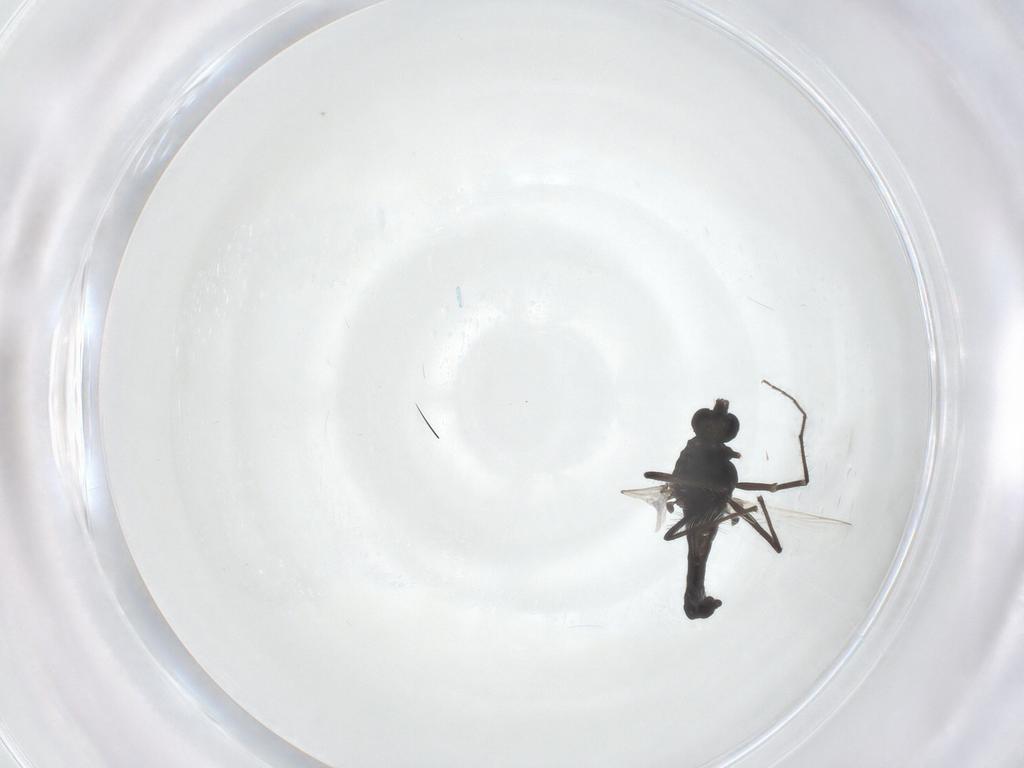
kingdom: Animalia
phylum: Arthropoda
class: Insecta
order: Diptera
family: Chironomidae
